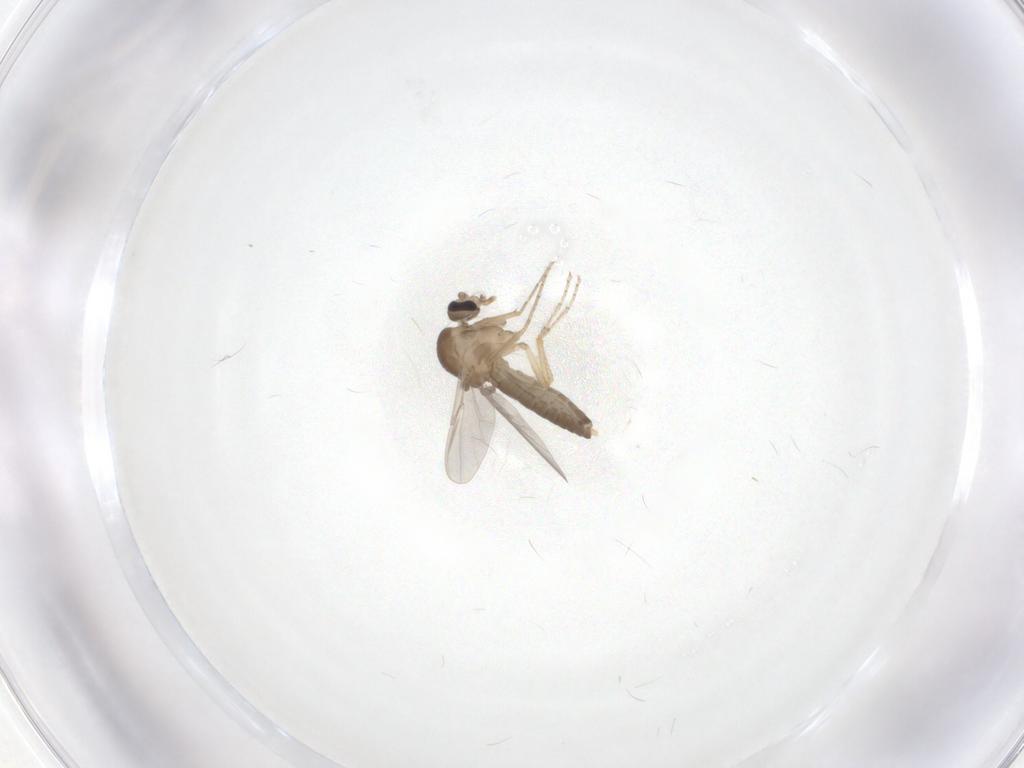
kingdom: Animalia
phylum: Arthropoda
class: Insecta
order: Diptera
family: Ceratopogonidae
